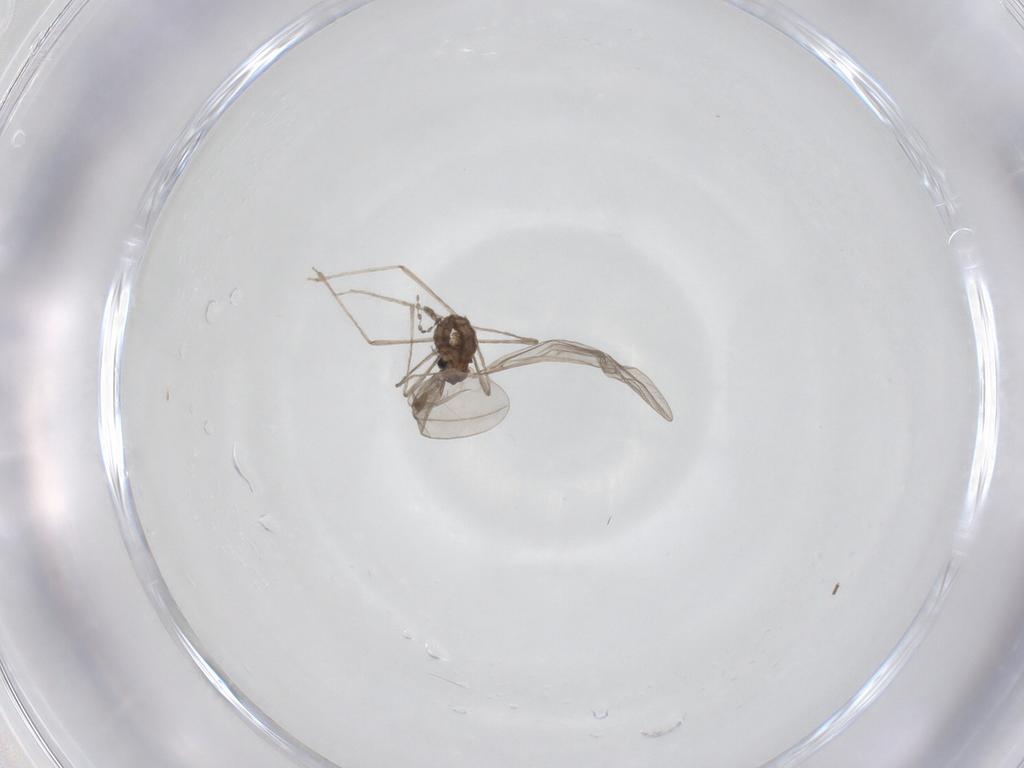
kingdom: Animalia
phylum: Arthropoda
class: Insecta
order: Diptera
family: Cecidomyiidae
